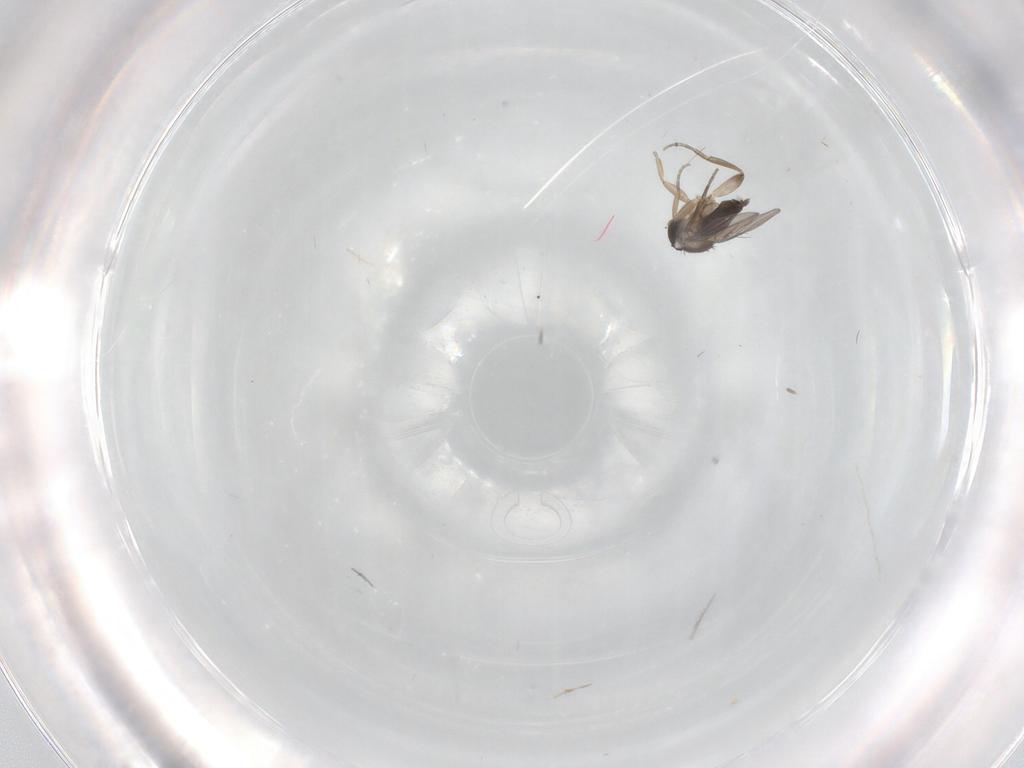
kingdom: Animalia
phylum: Arthropoda
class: Insecta
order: Diptera
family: Phoridae
